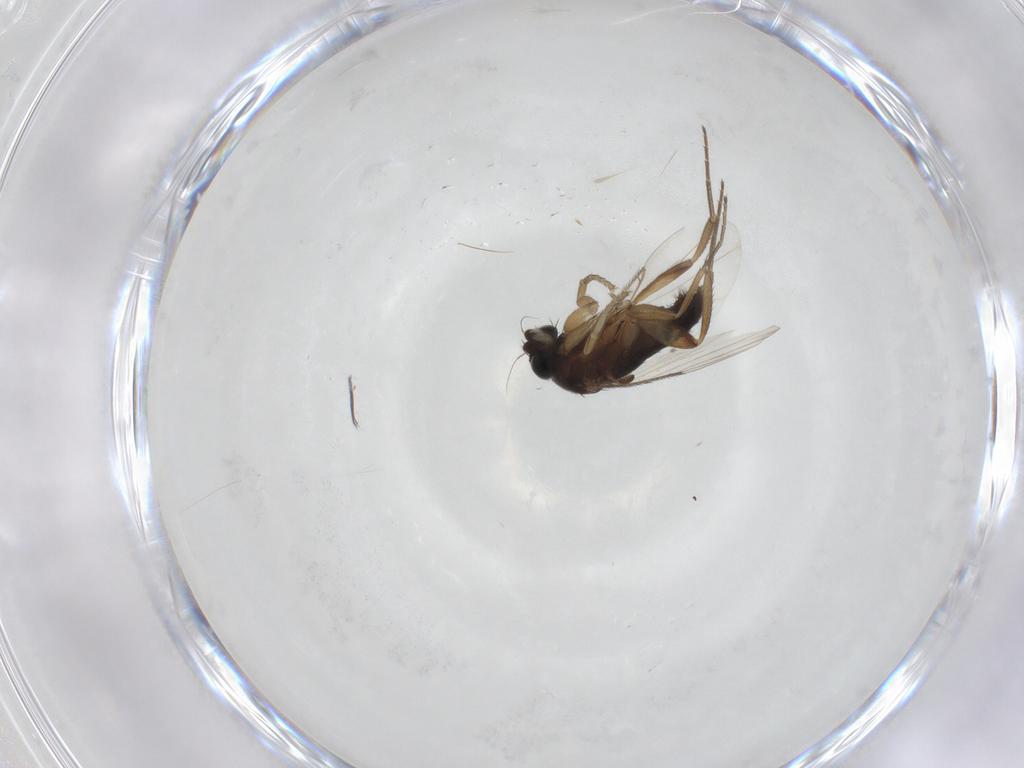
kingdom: Animalia
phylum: Arthropoda
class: Insecta
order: Diptera
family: Sciaridae
